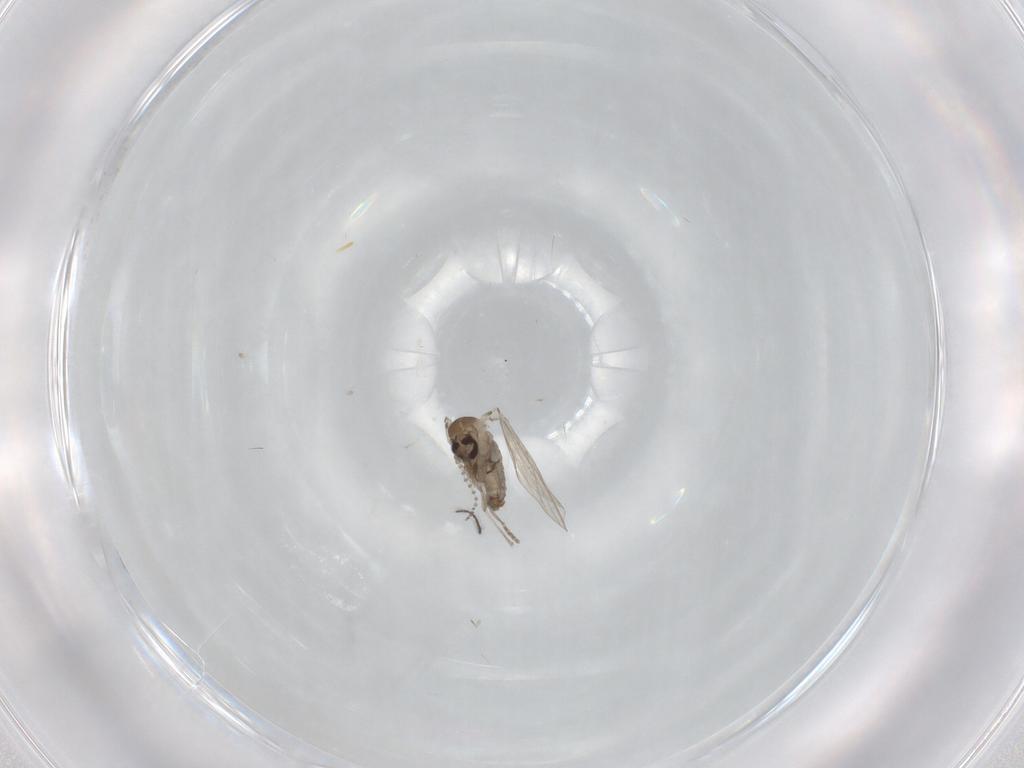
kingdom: Animalia
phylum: Arthropoda
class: Insecta
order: Diptera
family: Psychodidae
